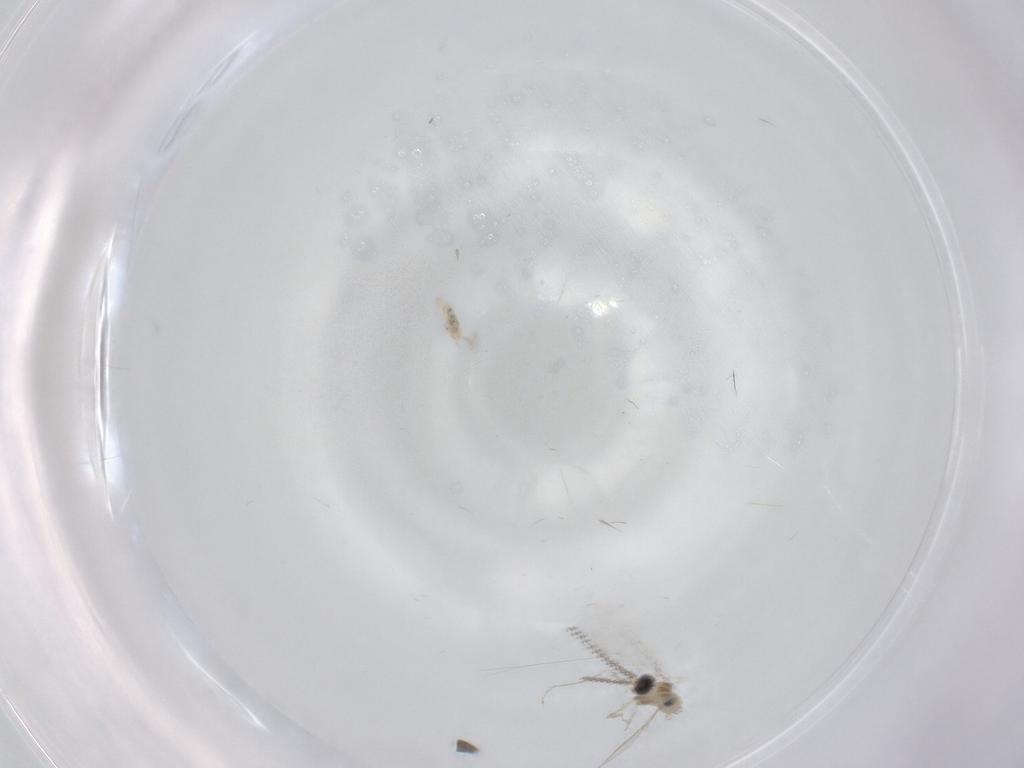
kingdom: Animalia
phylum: Arthropoda
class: Insecta
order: Diptera
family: Cecidomyiidae
